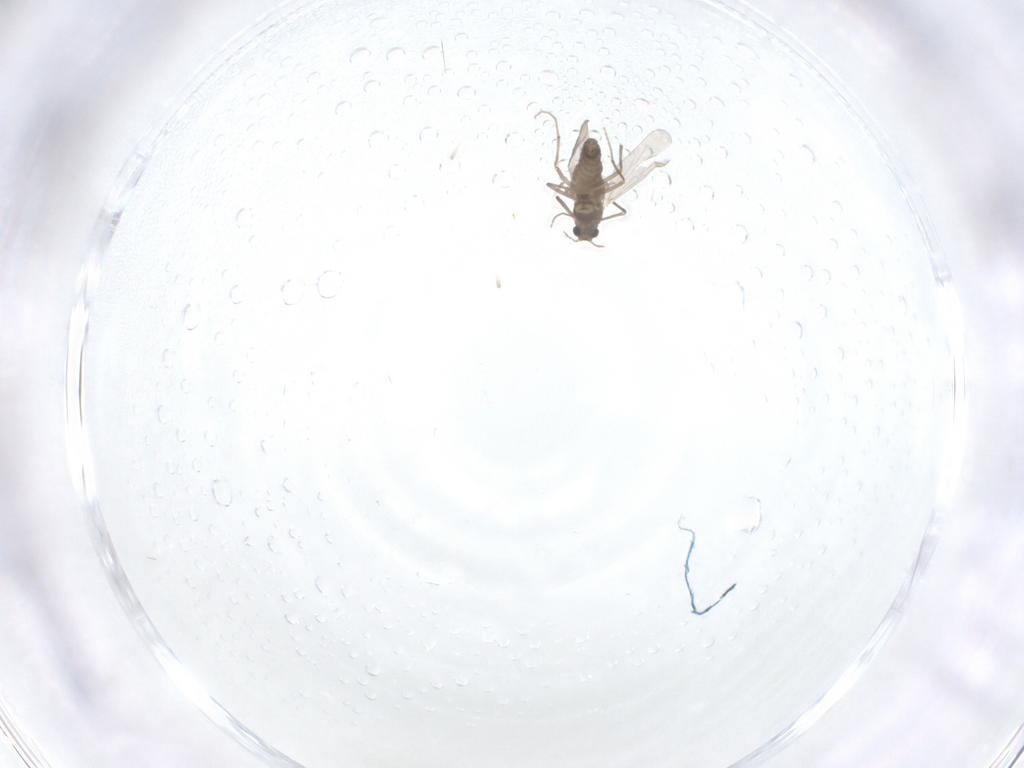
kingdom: Animalia
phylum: Arthropoda
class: Insecta
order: Diptera
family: Chironomidae
